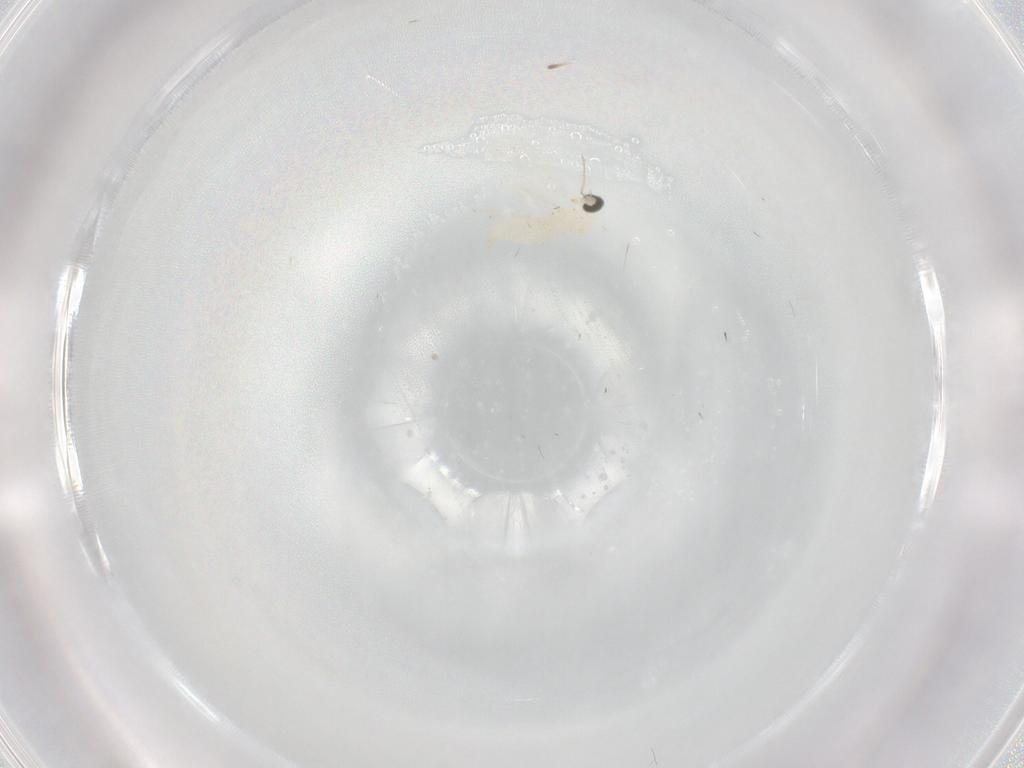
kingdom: Animalia
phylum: Arthropoda
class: Insecta
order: Diptera
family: Cecidomyiidae
